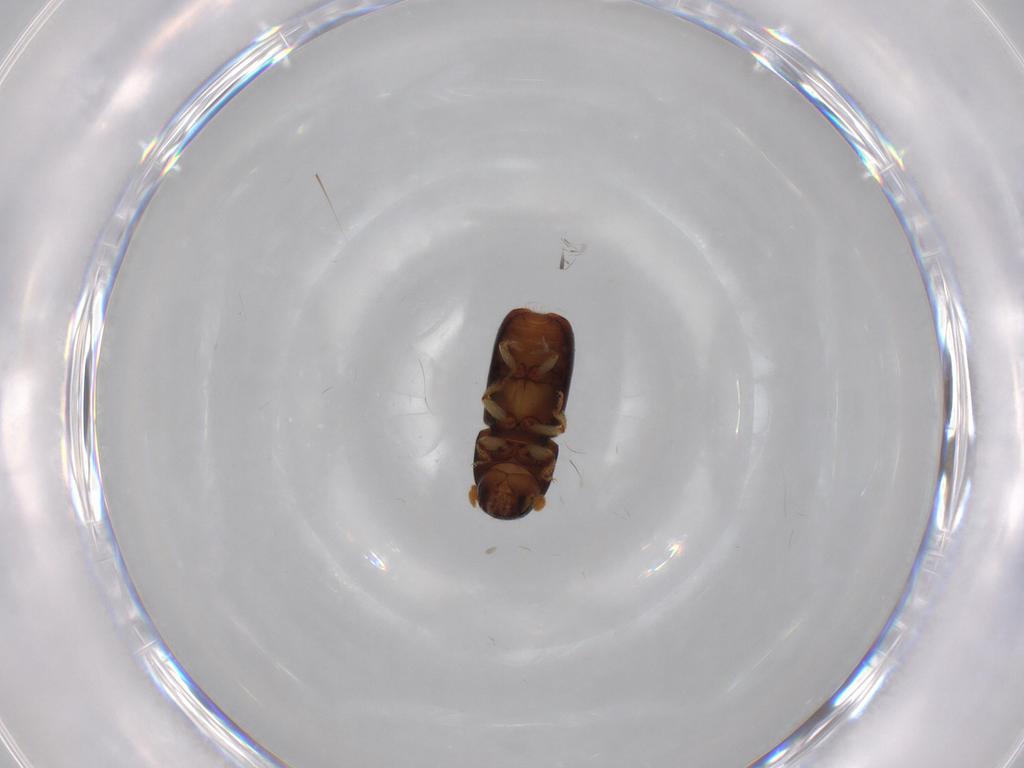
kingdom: Animalia
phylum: Arthropoda
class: Insecta
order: Coleoptera
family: Curculionidae
